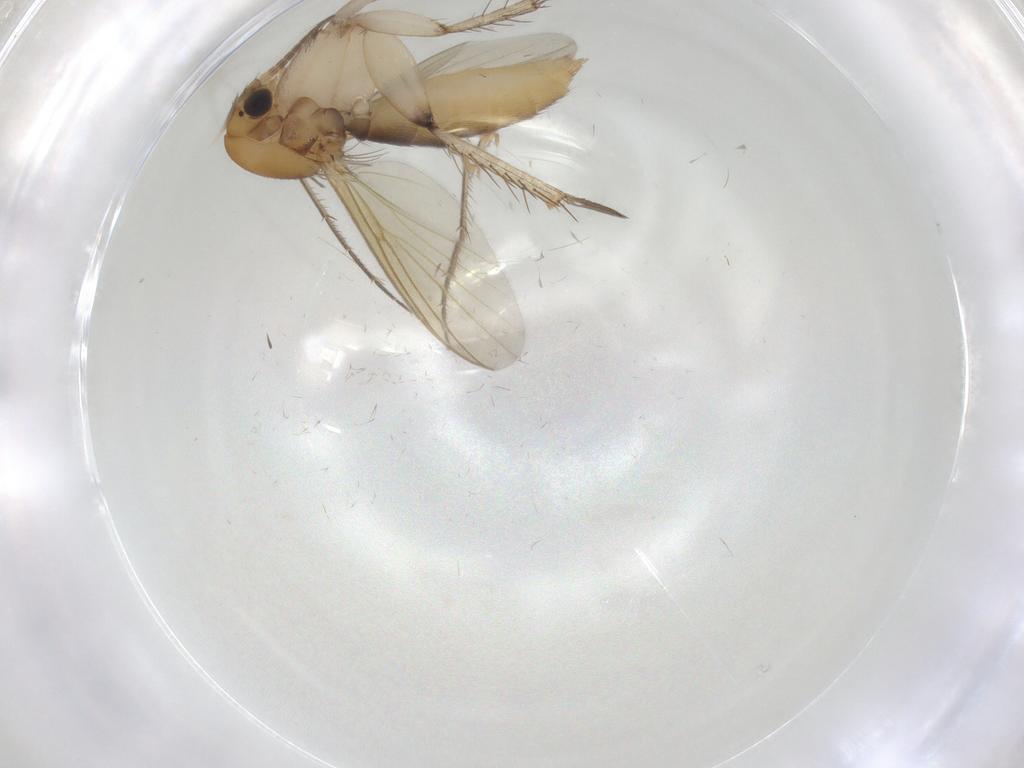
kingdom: Animalia
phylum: Arthropoda
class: Insecta
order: Diptera
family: Mycetophilidae
